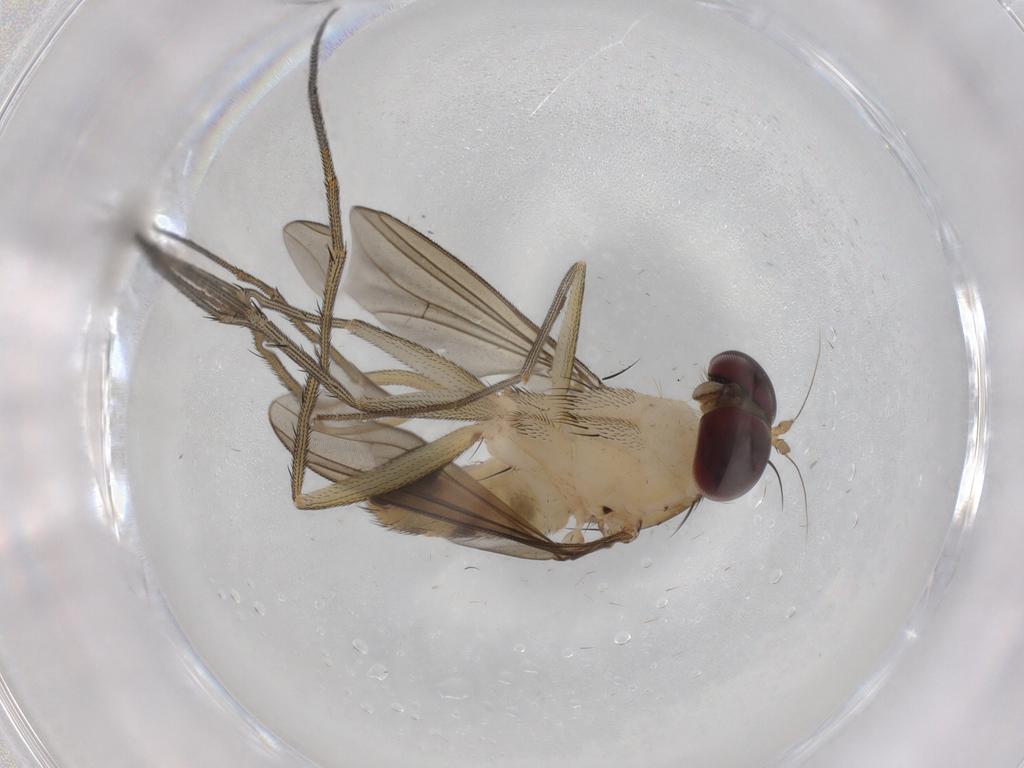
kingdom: Animalia
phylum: Arthropoda
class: Insecta
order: Diptera
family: Dolichopodidae
